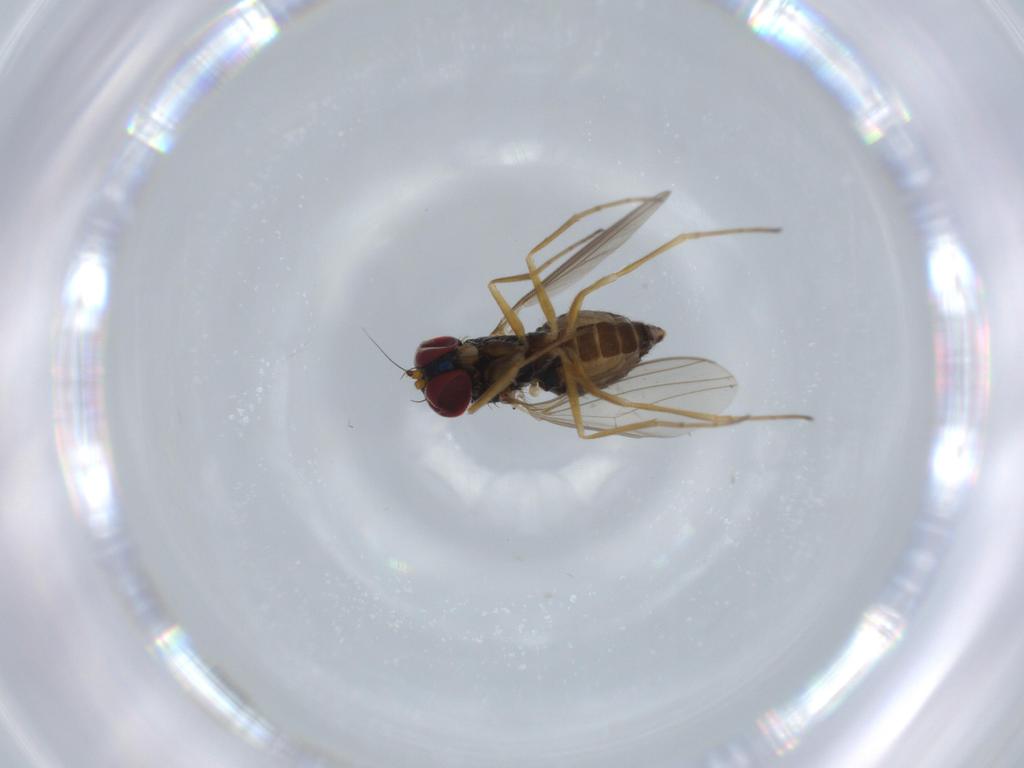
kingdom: Animalia
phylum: Arthropoda
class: Insecta
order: Diptera
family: Dolichopodidae
